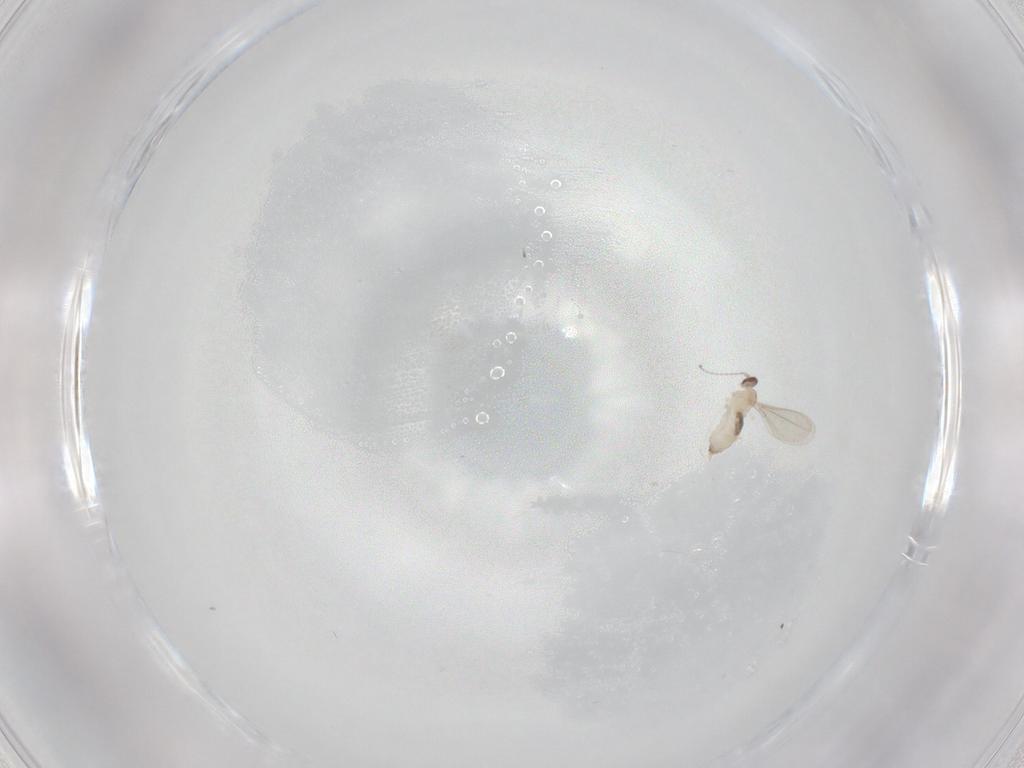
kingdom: Animalia
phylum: Arthropoda
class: Insecta
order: Diptera
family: Cecidomyiidae
